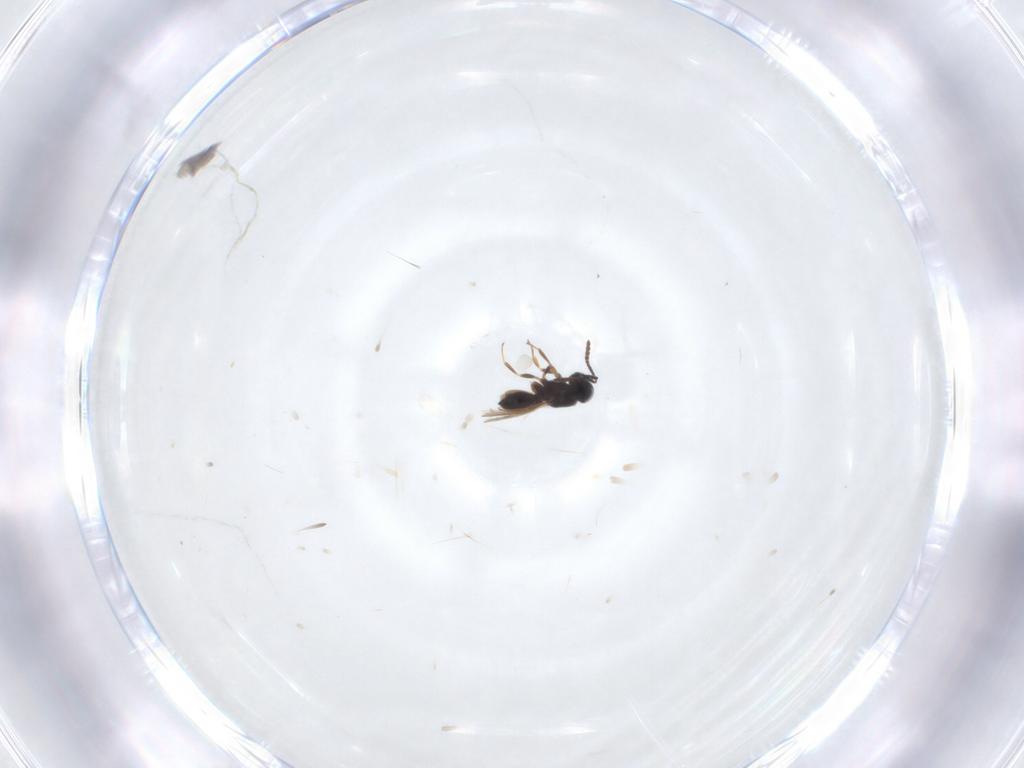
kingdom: Animalia
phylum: Arthropoda
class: Insecta
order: Hymenoptera
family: Scelionidae
